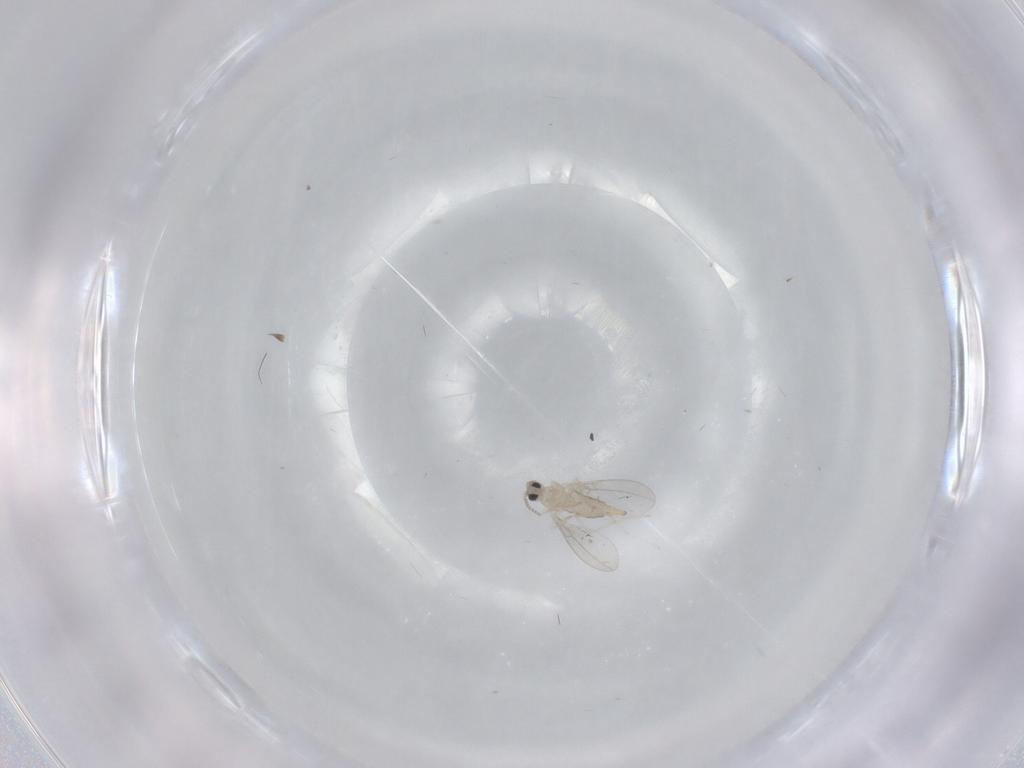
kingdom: Animalia
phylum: Arthropoda
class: Insecta
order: Diptera
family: Cecidomyiidae
